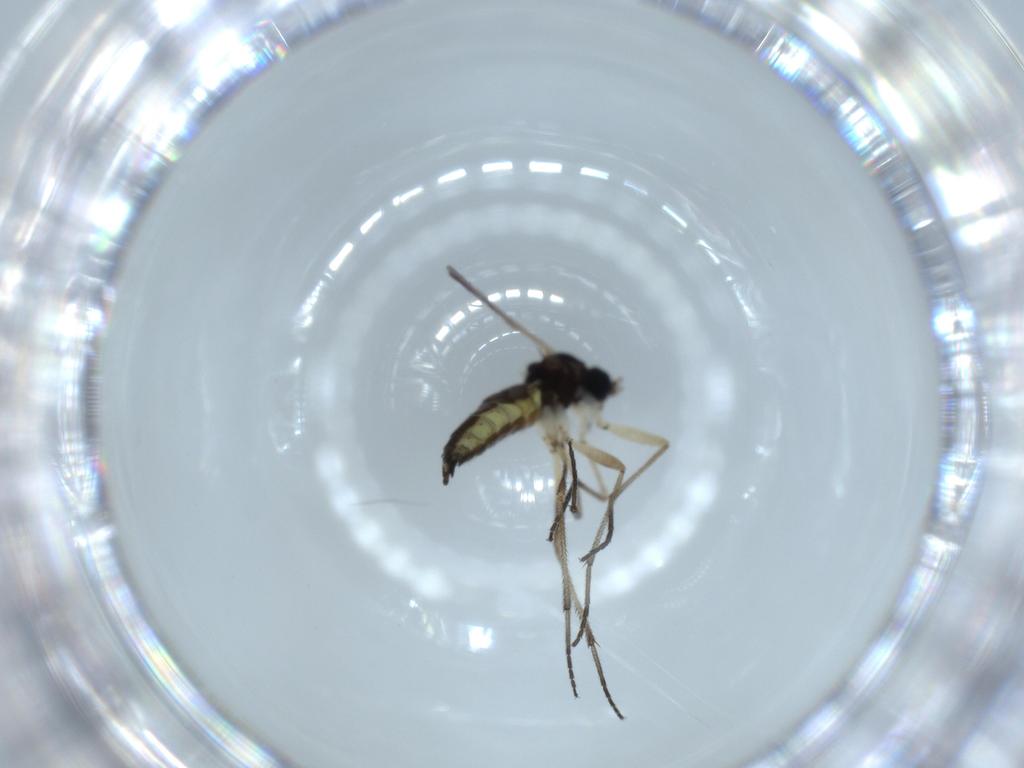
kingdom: Animalia
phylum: Arthropoda
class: Insecta
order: Diptera
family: Sciaridae
